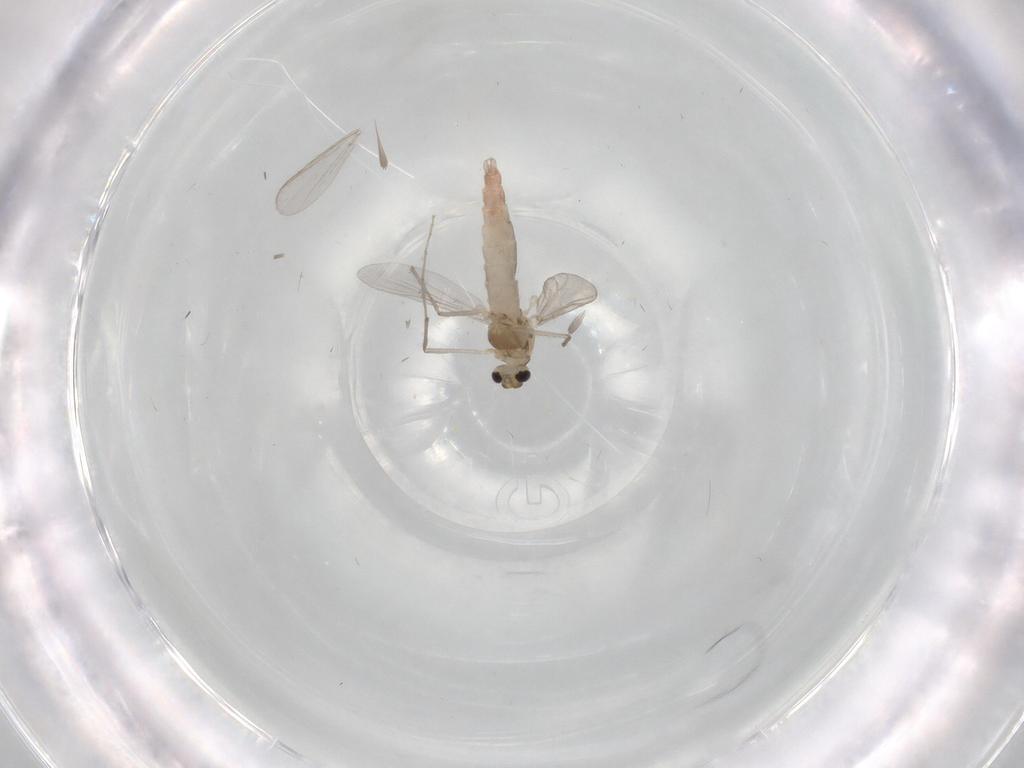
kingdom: Animalia
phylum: Arthropoda
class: Insecta
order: Diptera
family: Chironomidae
